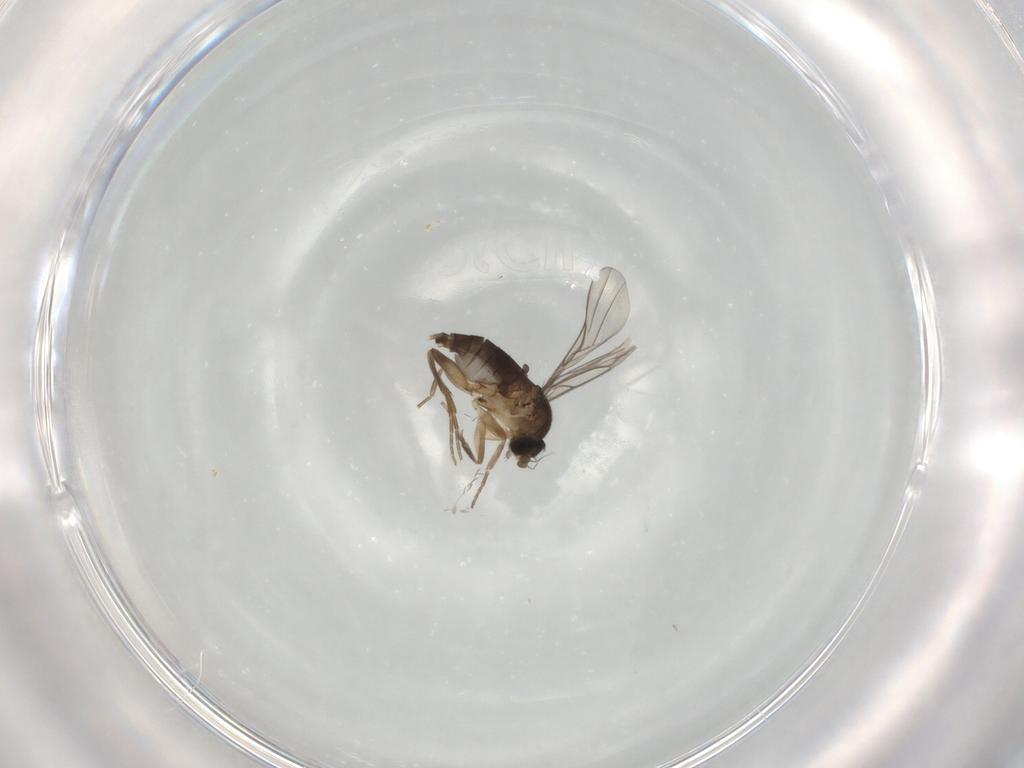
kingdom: Animalia
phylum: Arthropoda
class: Insecta
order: Diptera
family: Phoridae
